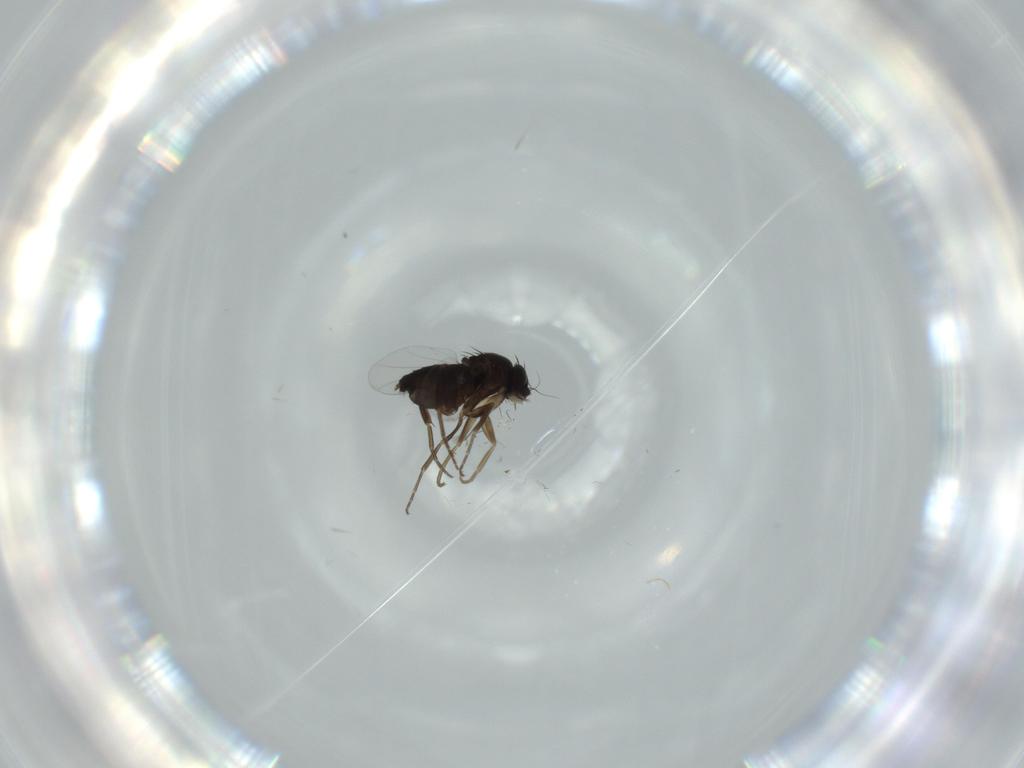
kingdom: Animalia
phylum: Arthropoda
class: Insecta
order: Diptera
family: Phoridae
